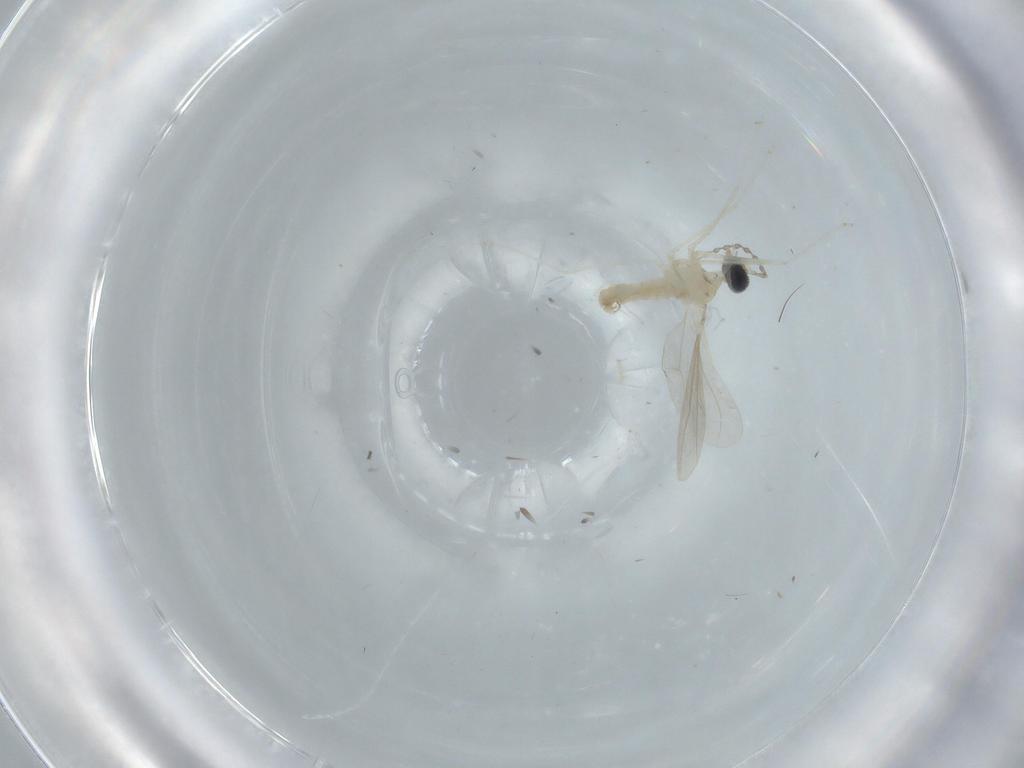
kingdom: Animalia
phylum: Arthropoda
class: Insecta
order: Diptera
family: Cecidomyiidae
